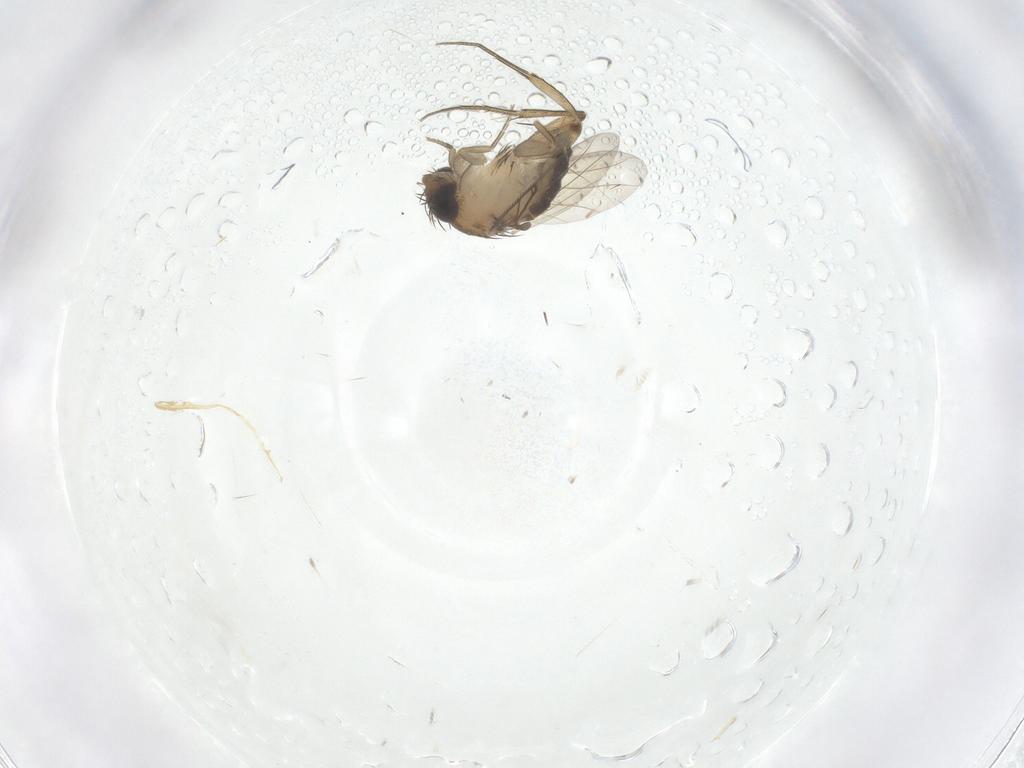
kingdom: Animalia
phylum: Arthropoda
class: Insecta
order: Diptera
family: Phoridae
